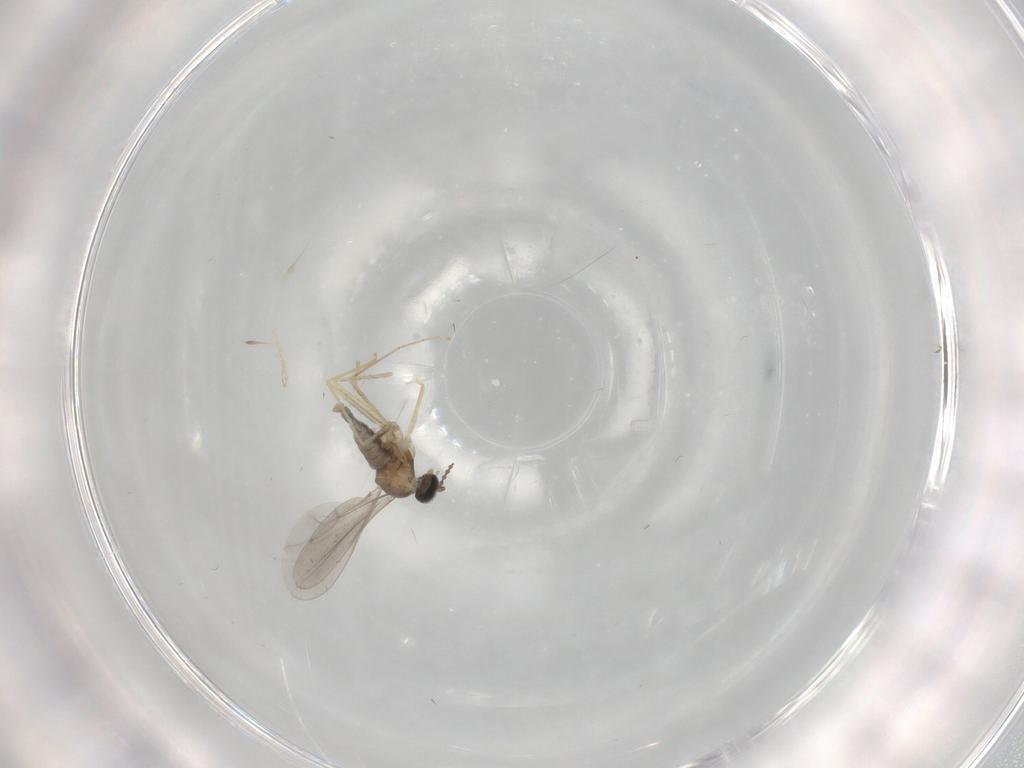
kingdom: Animalia
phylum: Arthropoda
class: Insecta
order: Diptera
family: Cecidomyiidae
